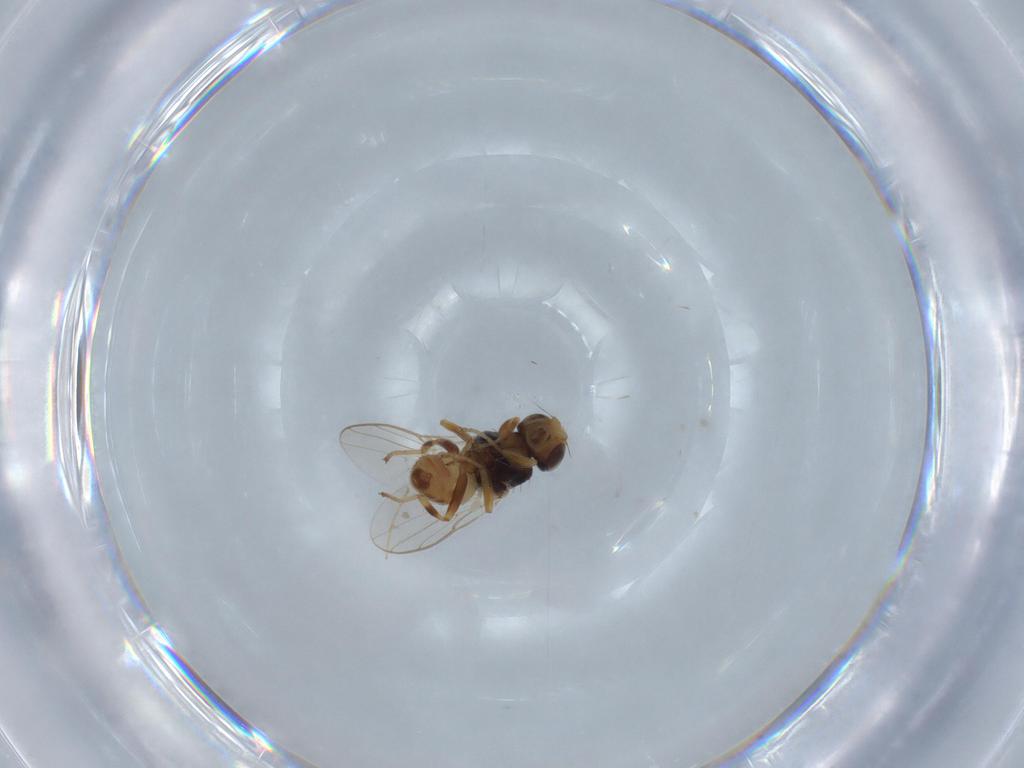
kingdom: Animalia
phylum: Arthropoda
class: Insecta
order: Diptera
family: Chloropidae
